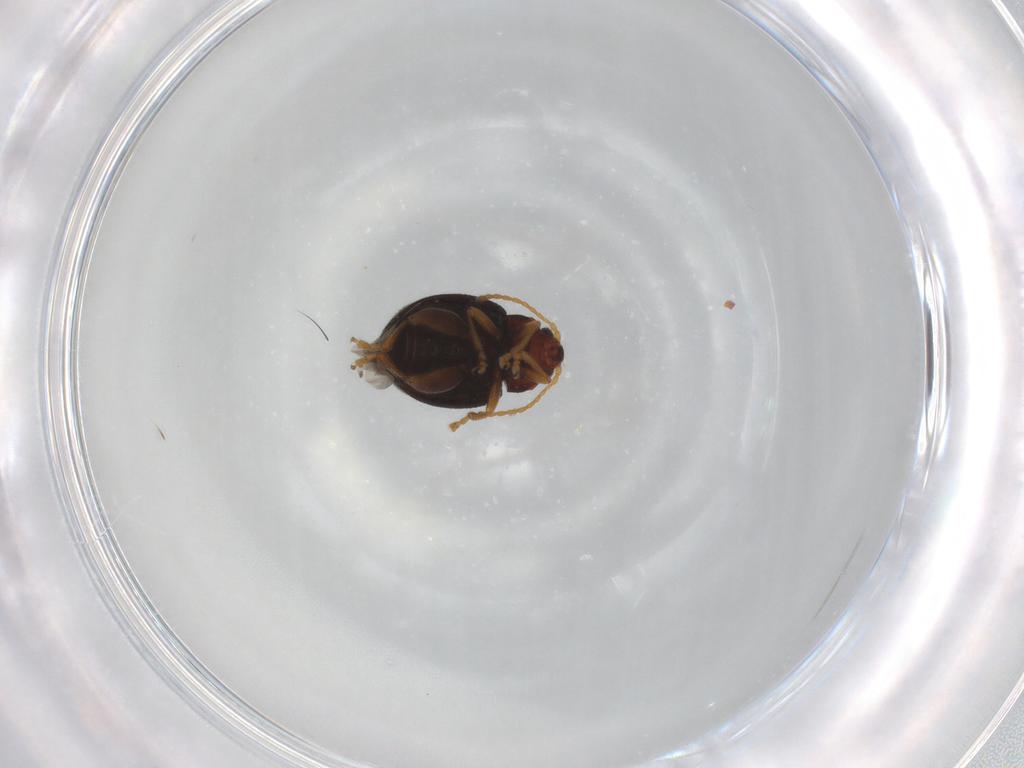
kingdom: Animalia
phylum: Arthropoda
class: Insecta
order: Coleoptera
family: Chrysomelidae
